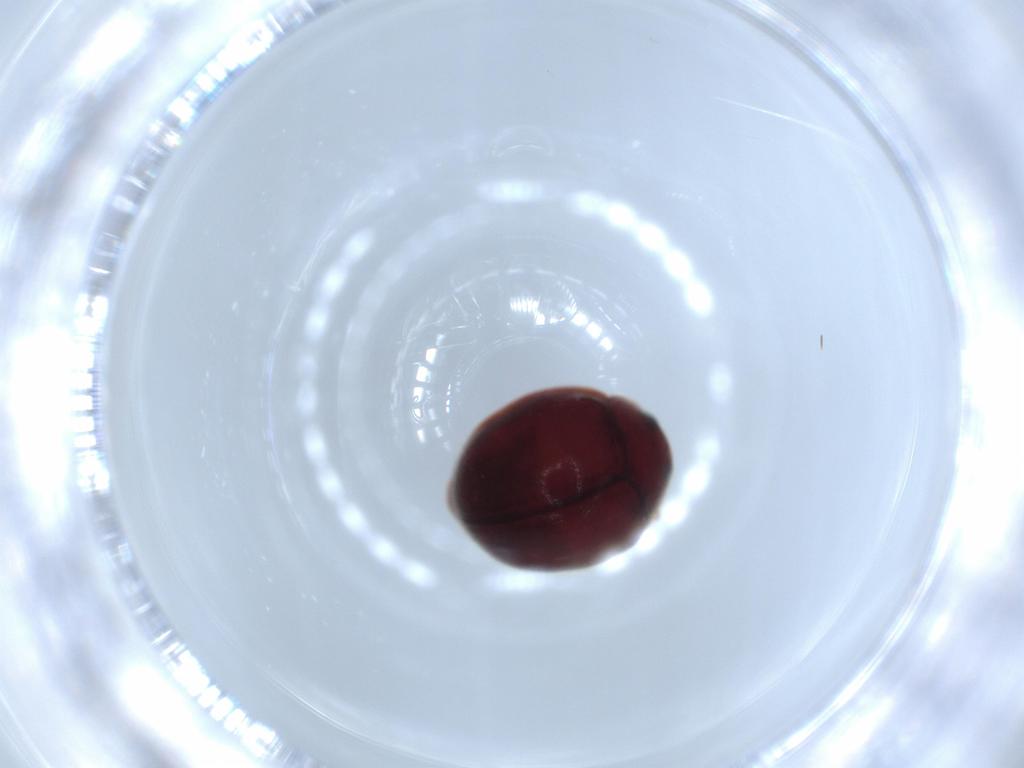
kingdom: Animalia
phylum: Arthropoda
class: Insecta
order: Coleoptera
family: Coccinellidae
